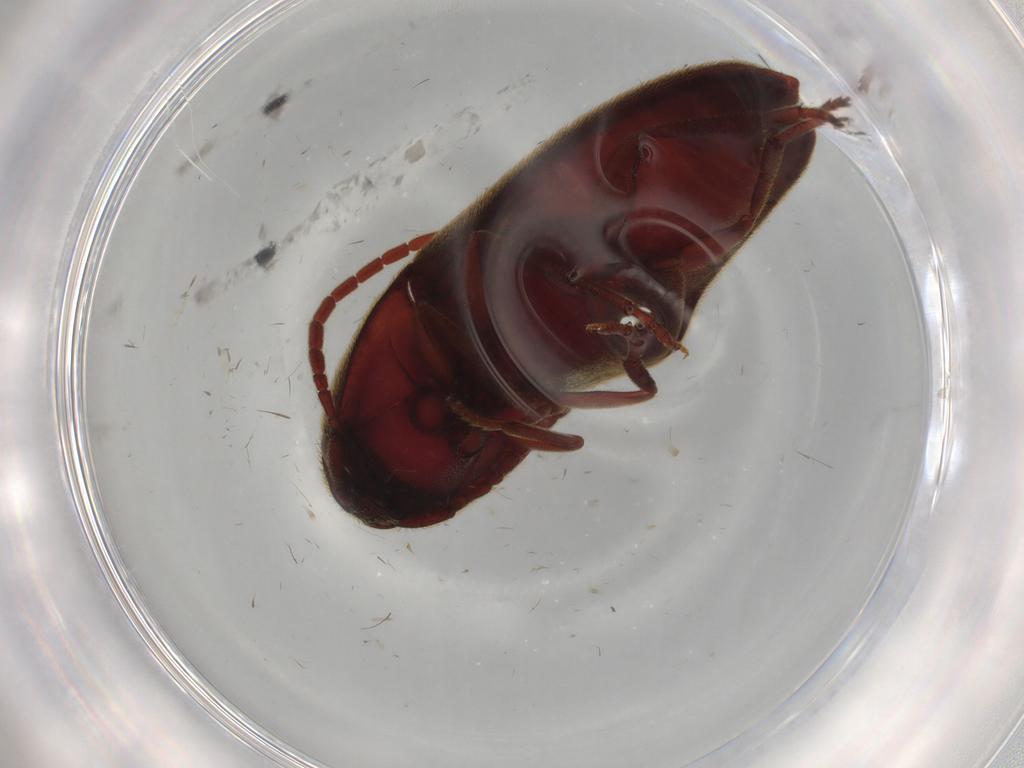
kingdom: Animalia
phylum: Arthropoda
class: Insecta
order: Coleoptera
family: Eucnemidae
